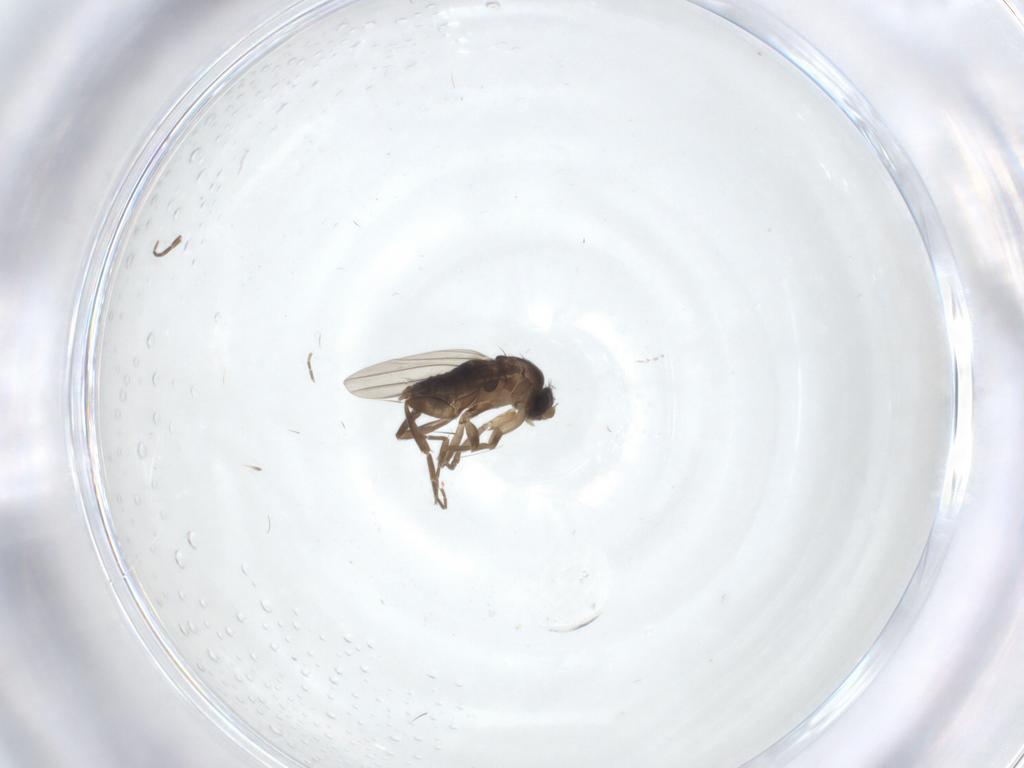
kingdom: Animalia
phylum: Arthropoda
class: Insecta
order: Diptera
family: Phoridae
